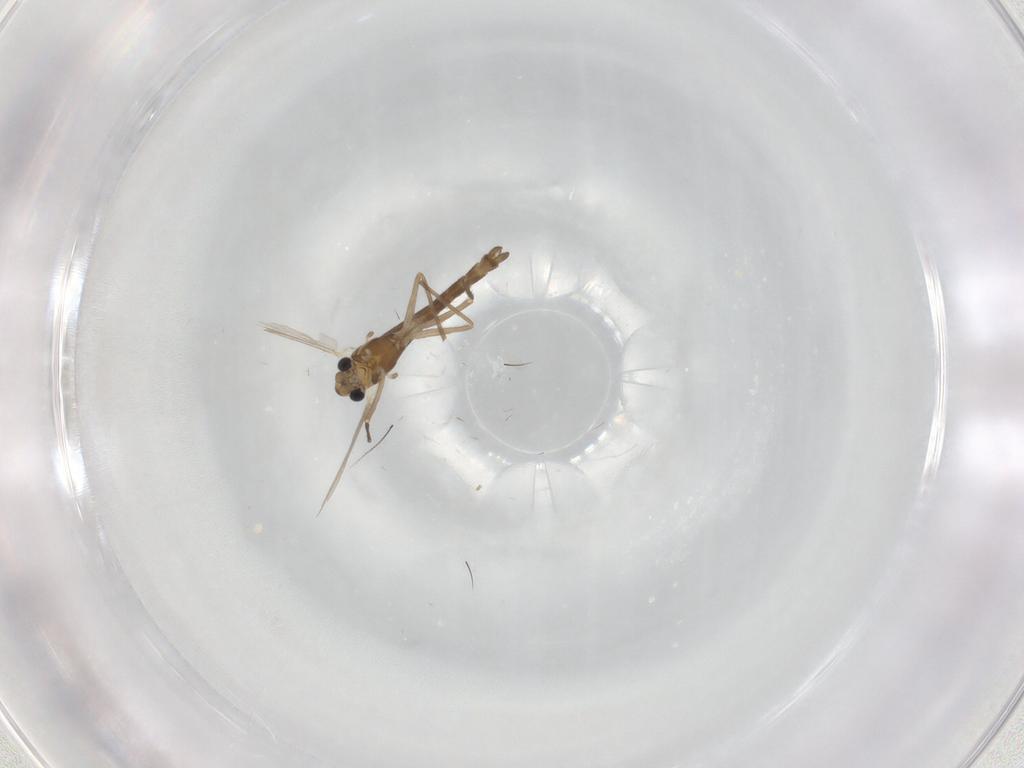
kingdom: Animalia
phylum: Arthropoda
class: Insecta
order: Diptera
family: Chironomidae
